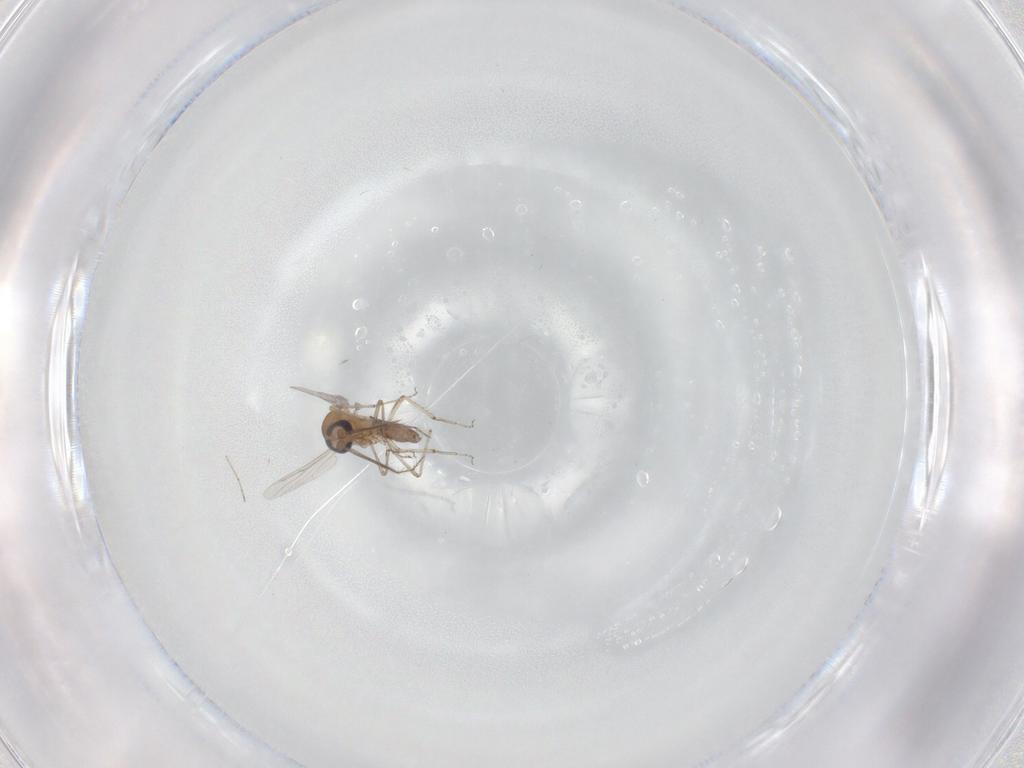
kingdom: Animalia
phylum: Arthropoda
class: Insecta
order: Diptera
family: Ceratopogonidae
